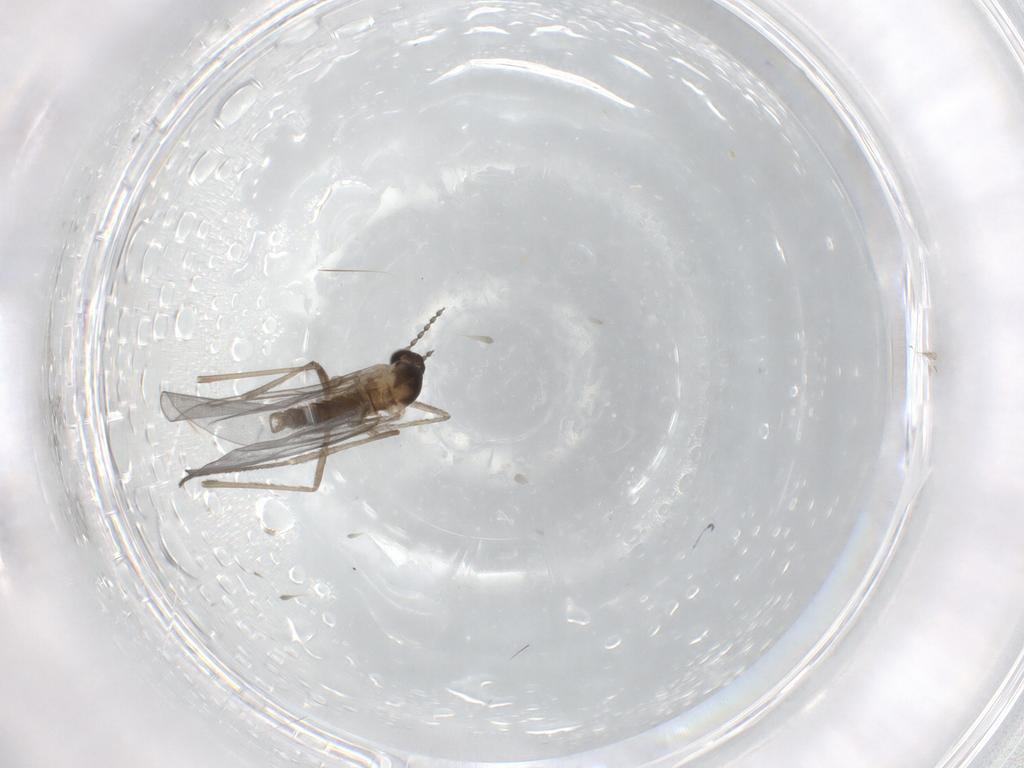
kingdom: Animalia
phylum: Arthropoda
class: Insecta
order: Diptera
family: Cecidomyiidae
